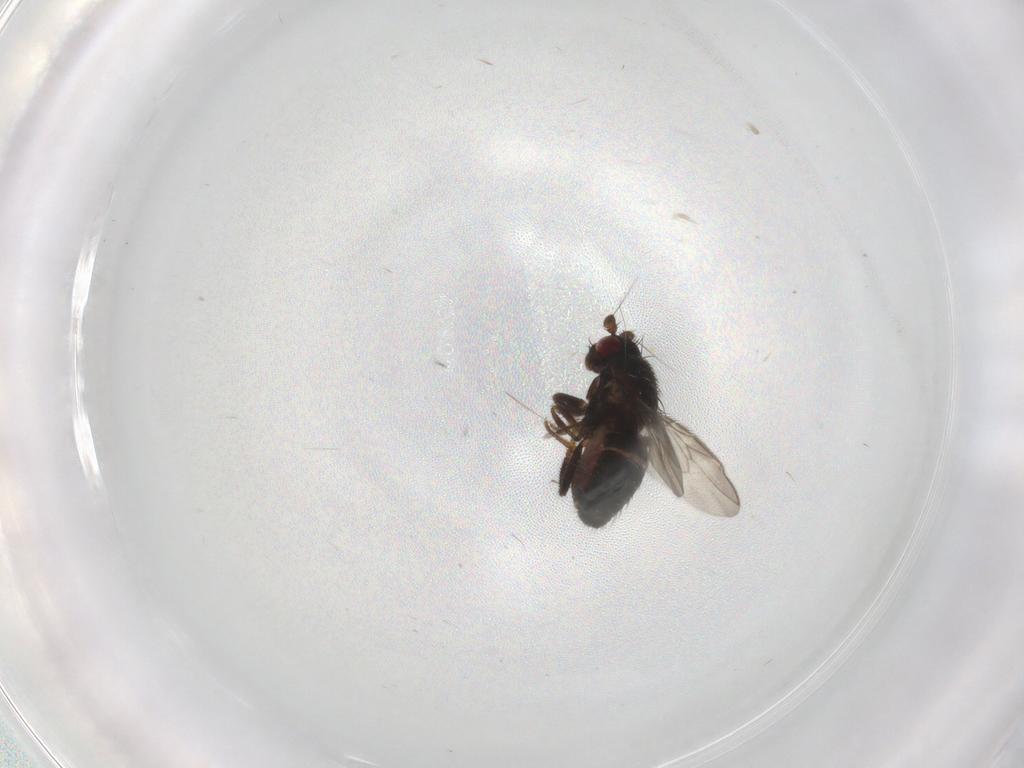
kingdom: Animalia
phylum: Arthropoda
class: Insecta
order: Diptera
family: Sphaeroceridae
